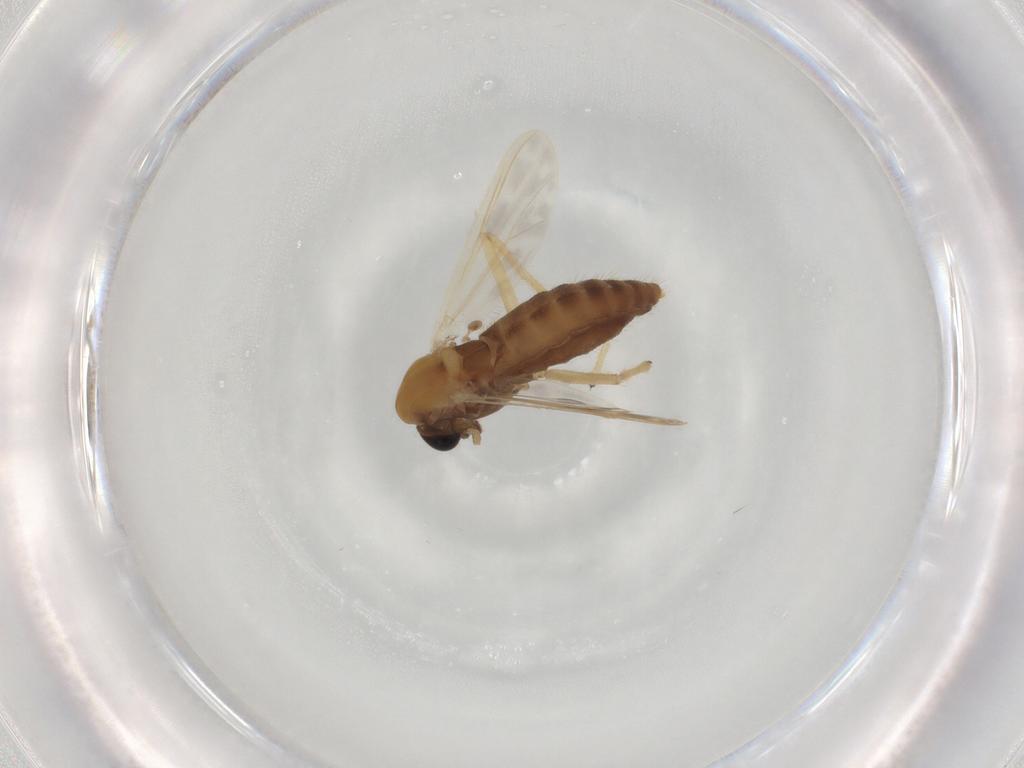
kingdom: Animalia
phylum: Arthropoda
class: Insecta
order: Diptera
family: Chironomidae
